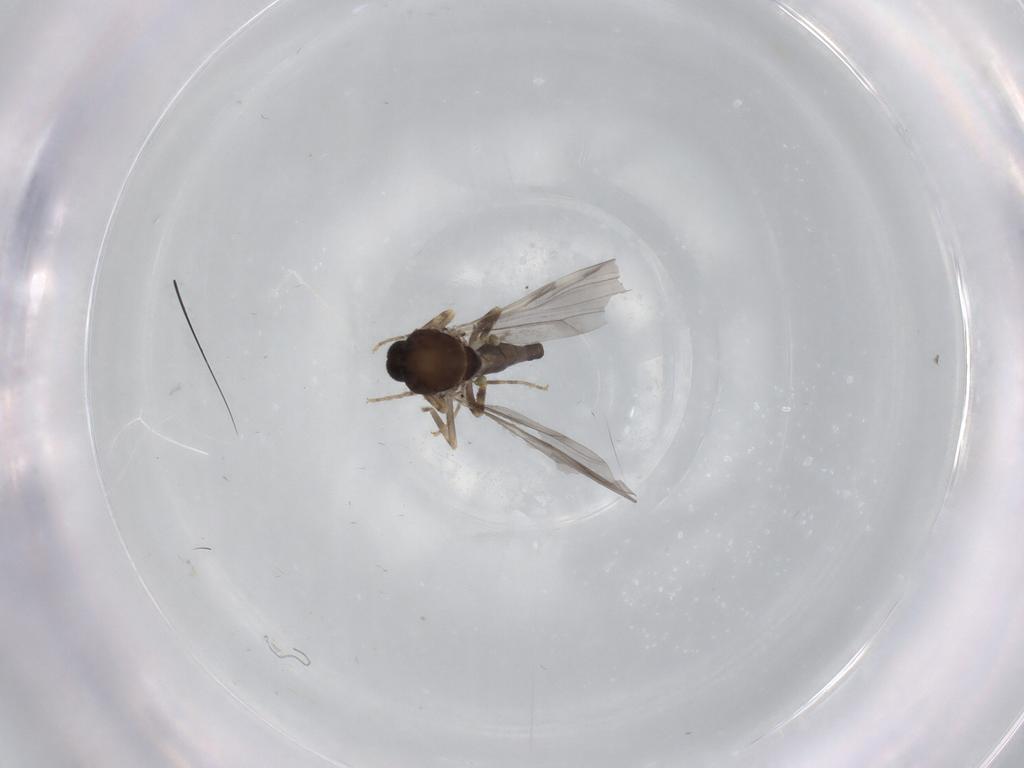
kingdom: Animalia
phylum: Arthropoda
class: Insecta
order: Diptera
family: Ceratopogonidae
